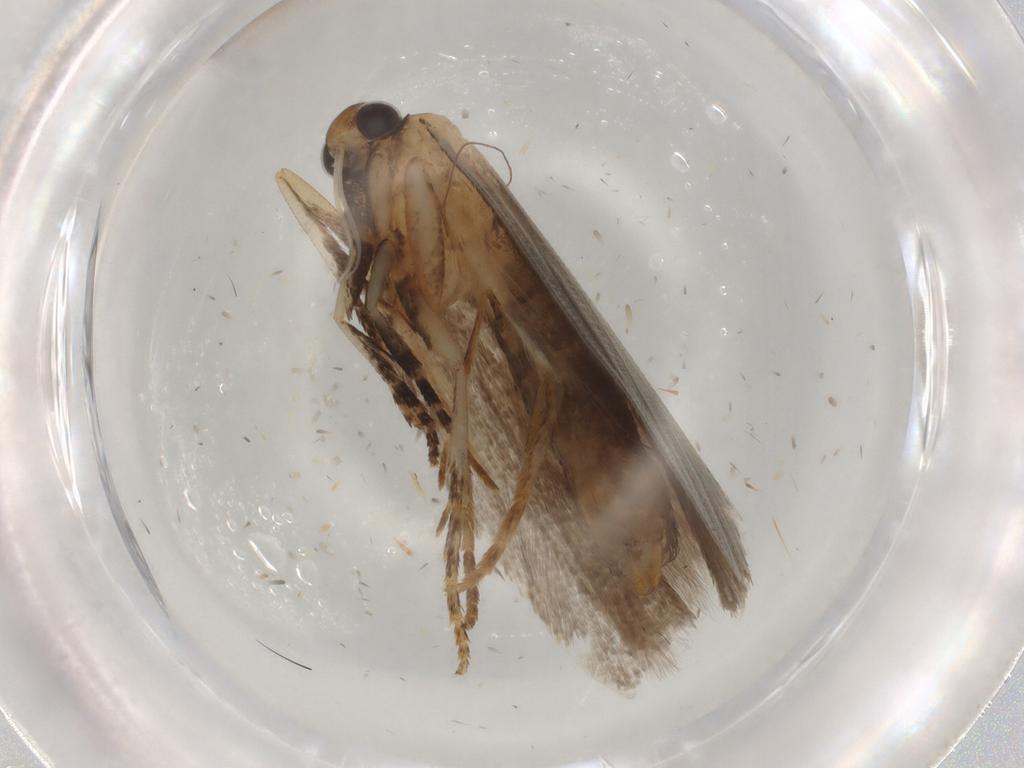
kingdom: Animalia
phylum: Arthropoda
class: Insecta
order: Lepidoptera
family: Gelechiidae
